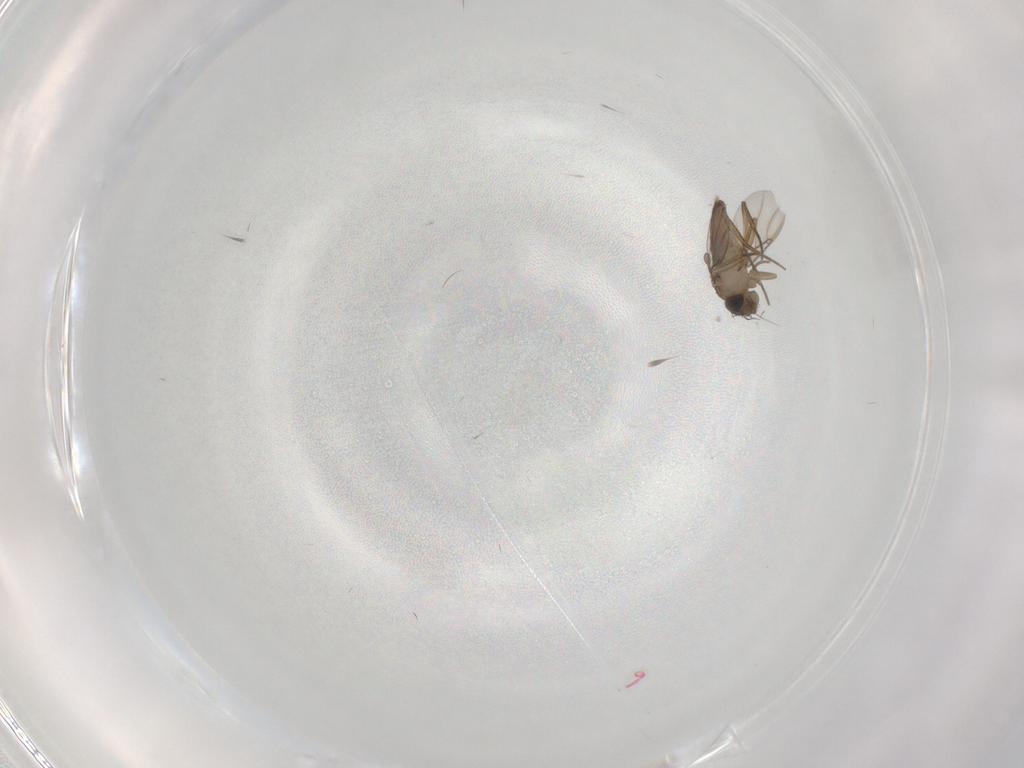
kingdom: Animalia
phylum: Arthropoda
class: Insecta
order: Diptera
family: Phoridae
